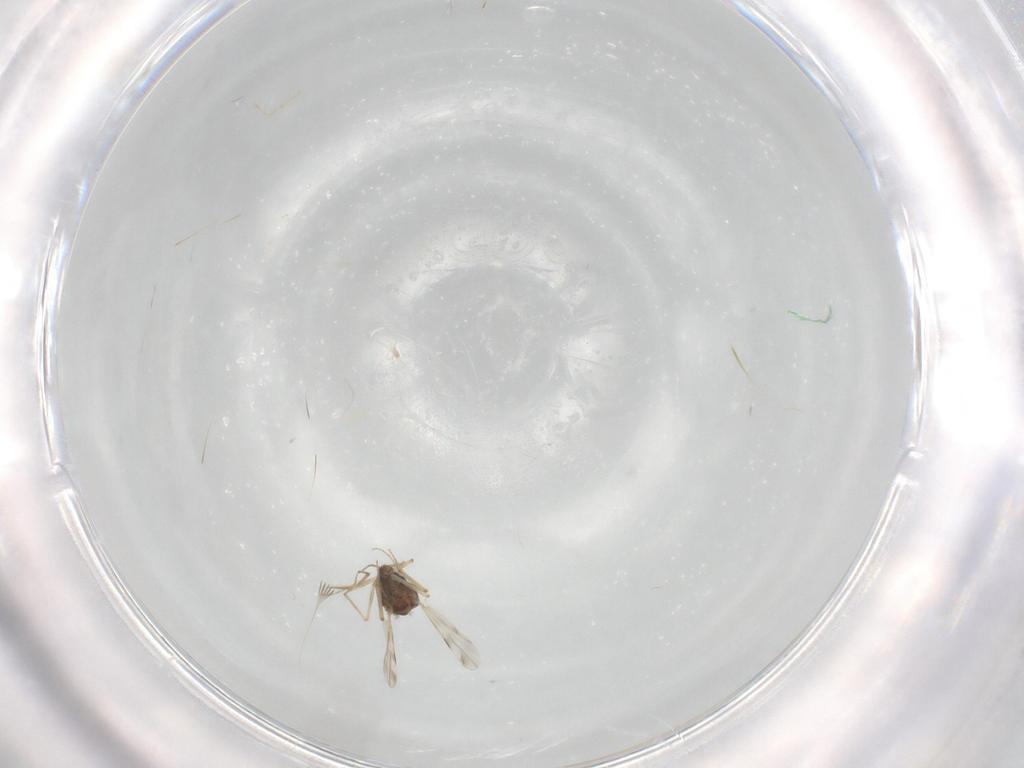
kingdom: Animalia
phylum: Arthropoda
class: Insecta
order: Diptera
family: Ceratopogonidae
